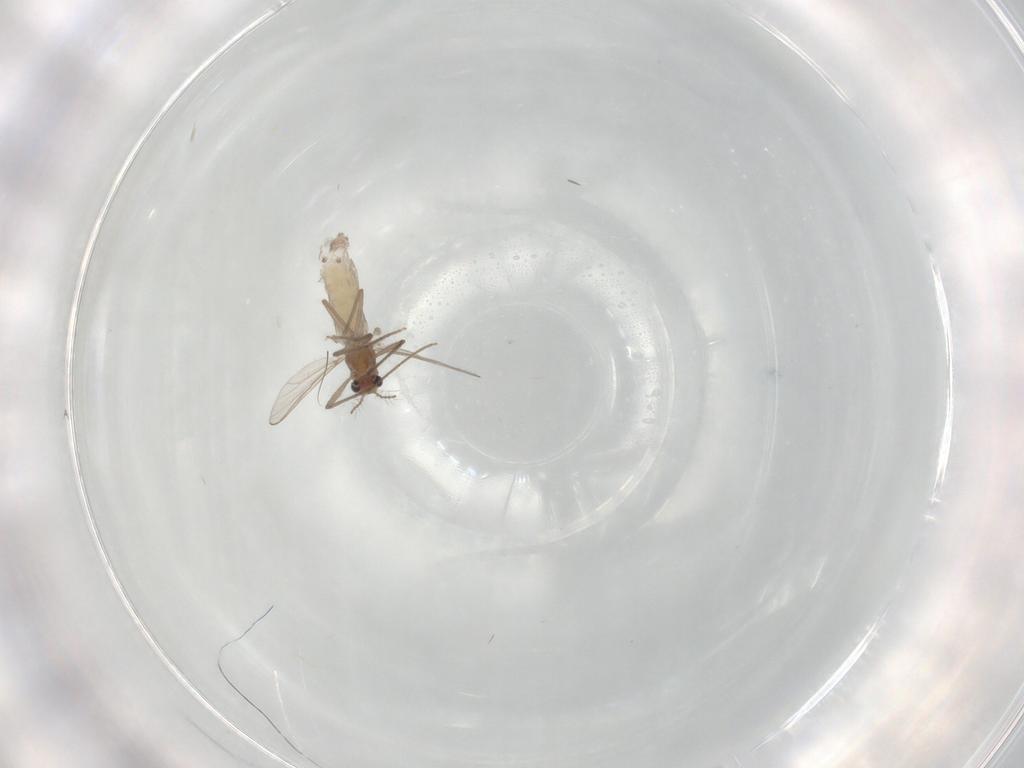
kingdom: Animalia
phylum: Arthropoda
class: Insecta
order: Diptera
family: Chironomidae
